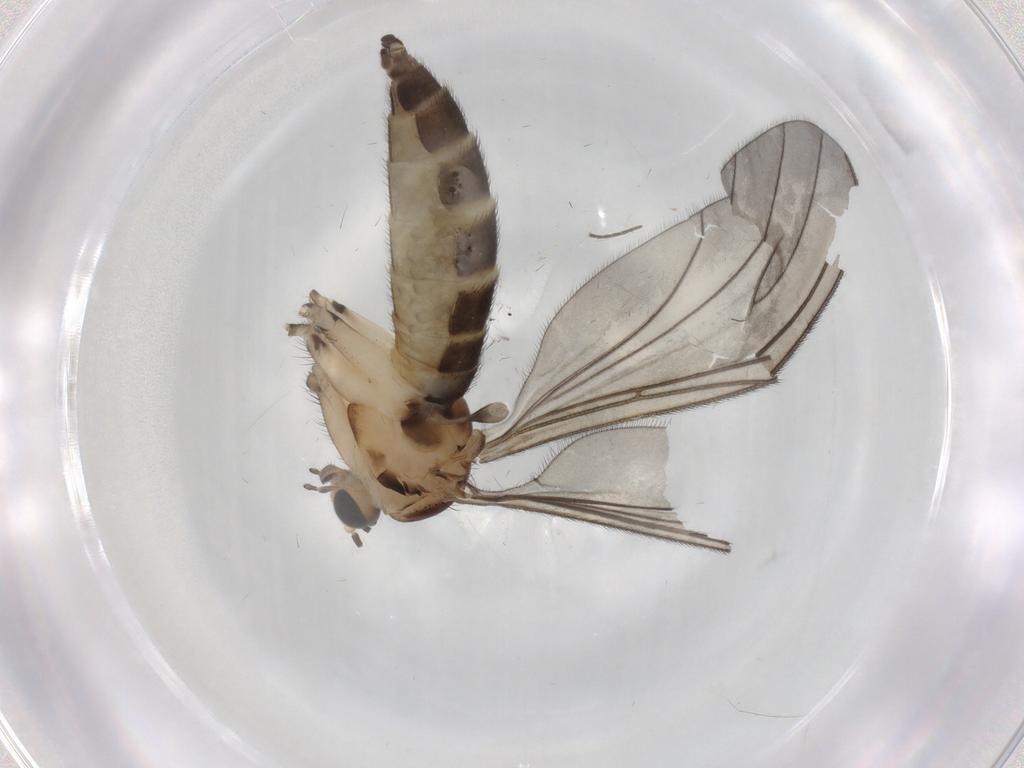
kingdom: Animalia
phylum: Arthropoda
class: Insecta
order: Diptera
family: Sciaridae
